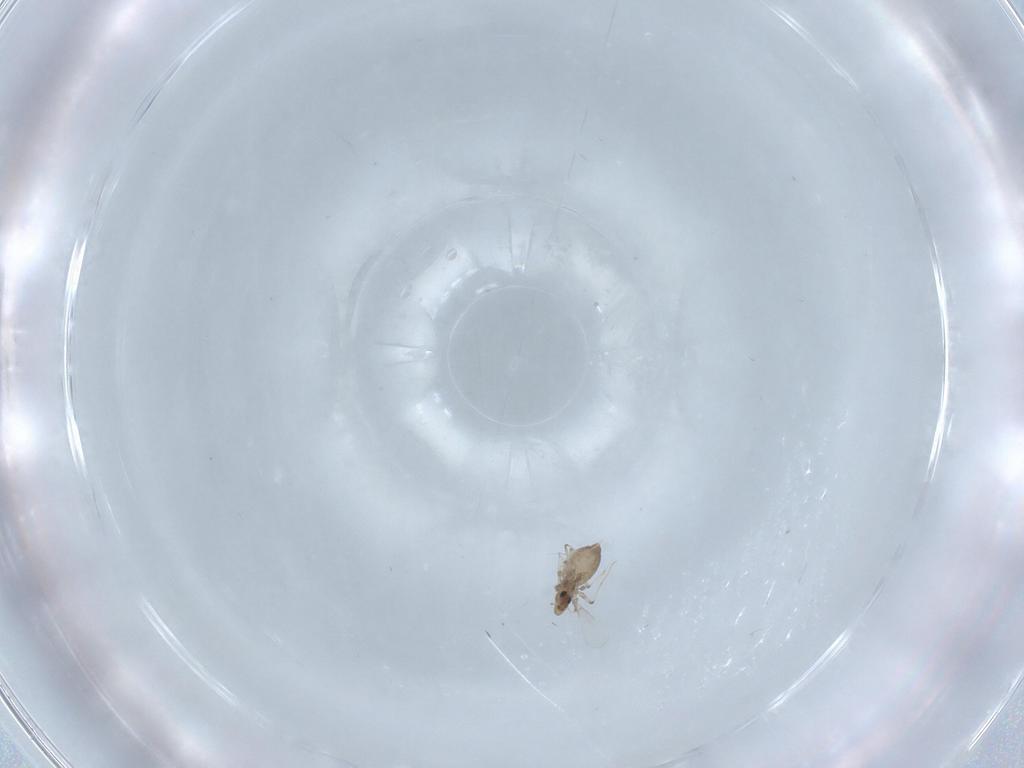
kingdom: Animalia
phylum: Arthropoda
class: Insecta
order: Diptera
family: Chironomidae
